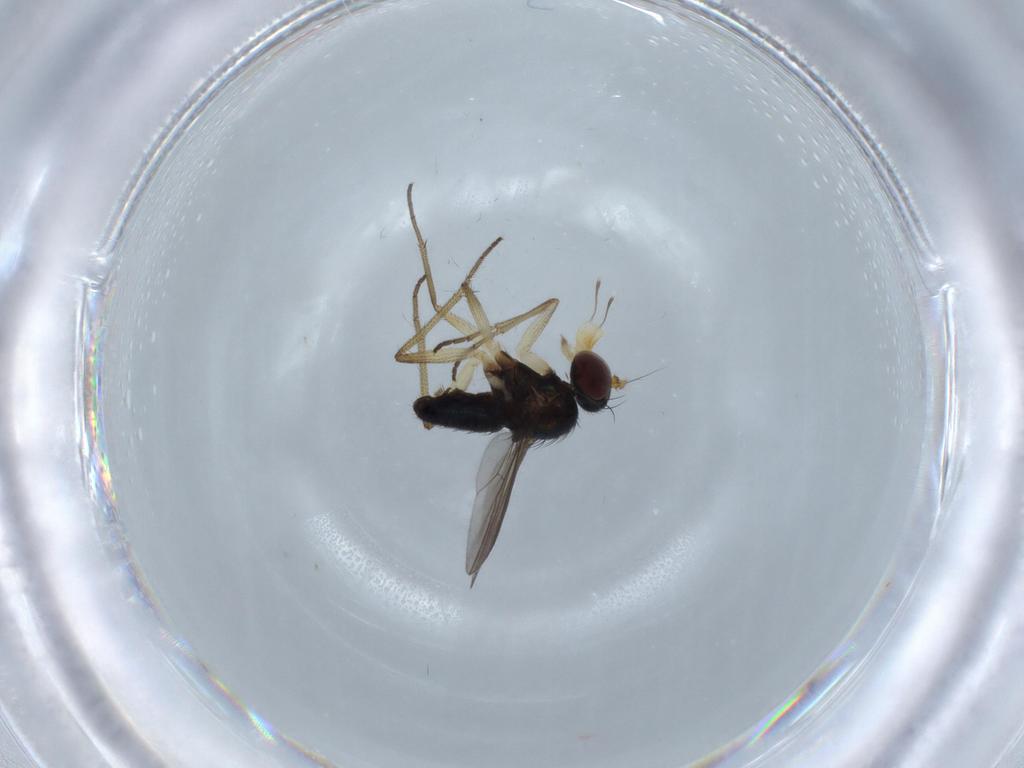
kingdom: Animalia
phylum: Arthropoda
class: Insecta
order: Diptera
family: Dolichopodidae
